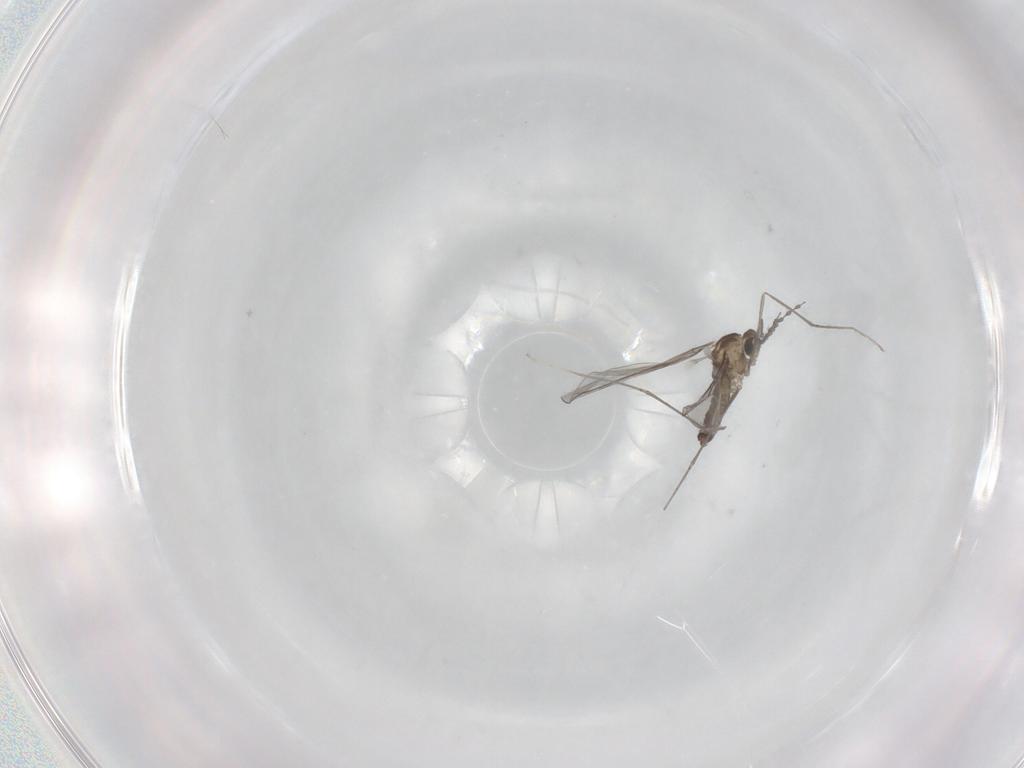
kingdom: Animalia
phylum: Arthropoda
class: Insecta
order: Diptera
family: Cecidomyiidae
